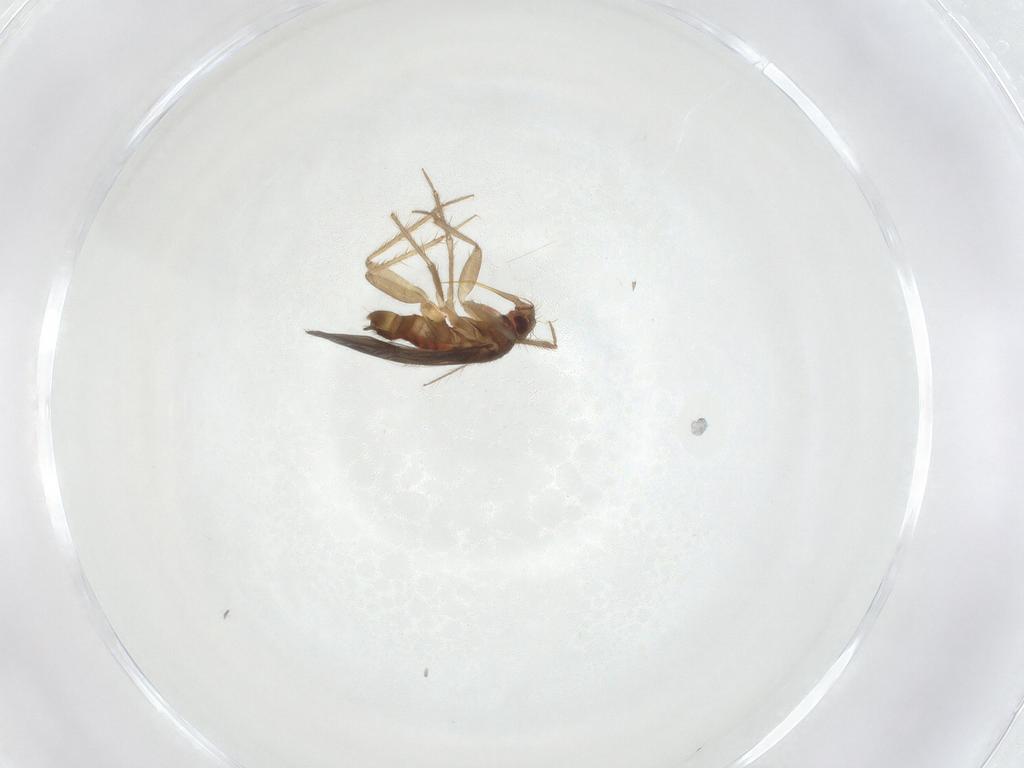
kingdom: Animalia
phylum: Arthropoda
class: Insecta
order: Hemiptera
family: Ceratocombidae
